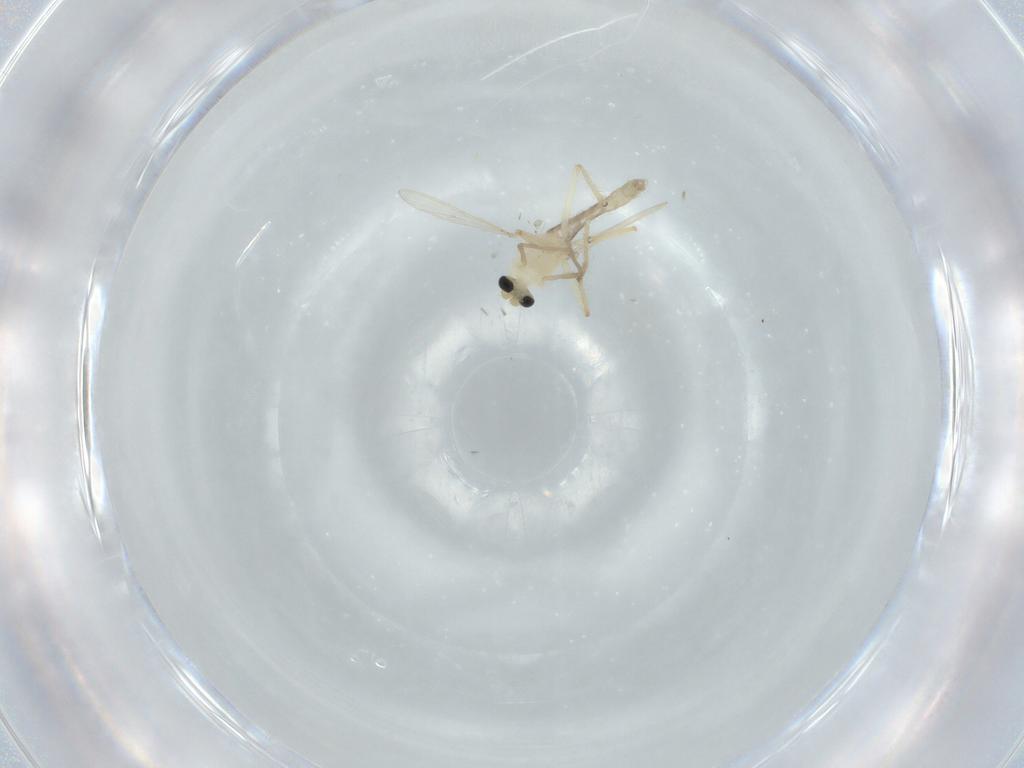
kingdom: Animalia
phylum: Arthropoda
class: Insecta
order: Diptera
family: Chironomidae
